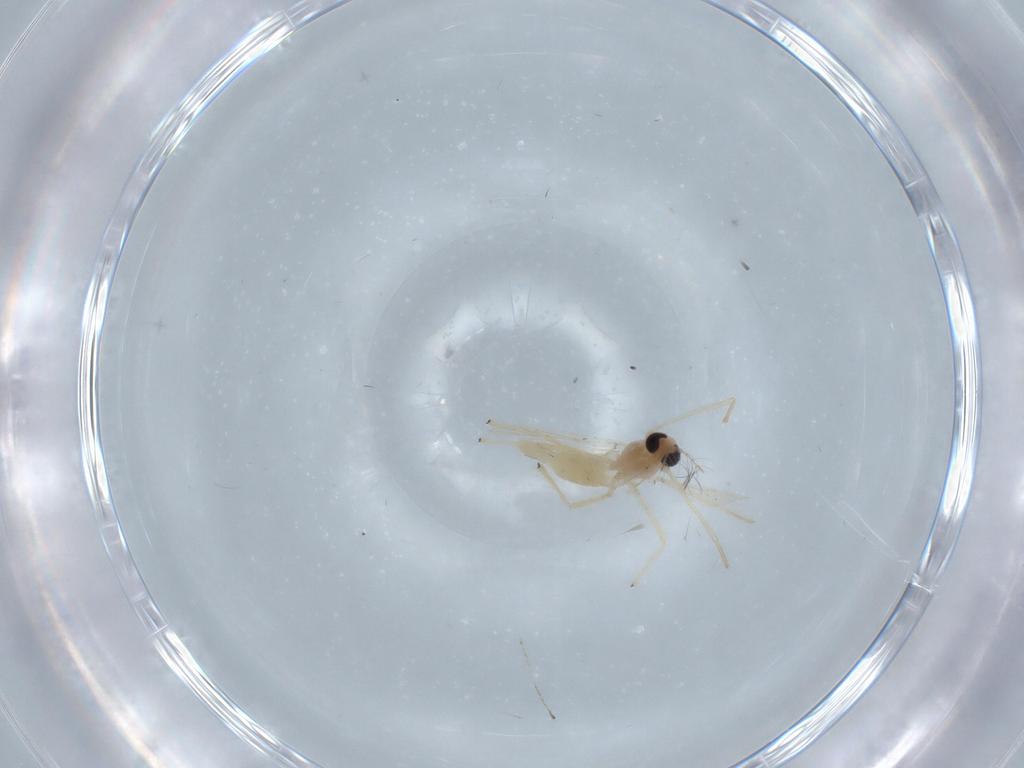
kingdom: Animalia
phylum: Arthropoda
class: Insecta
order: Diptera
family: Chironomidae
